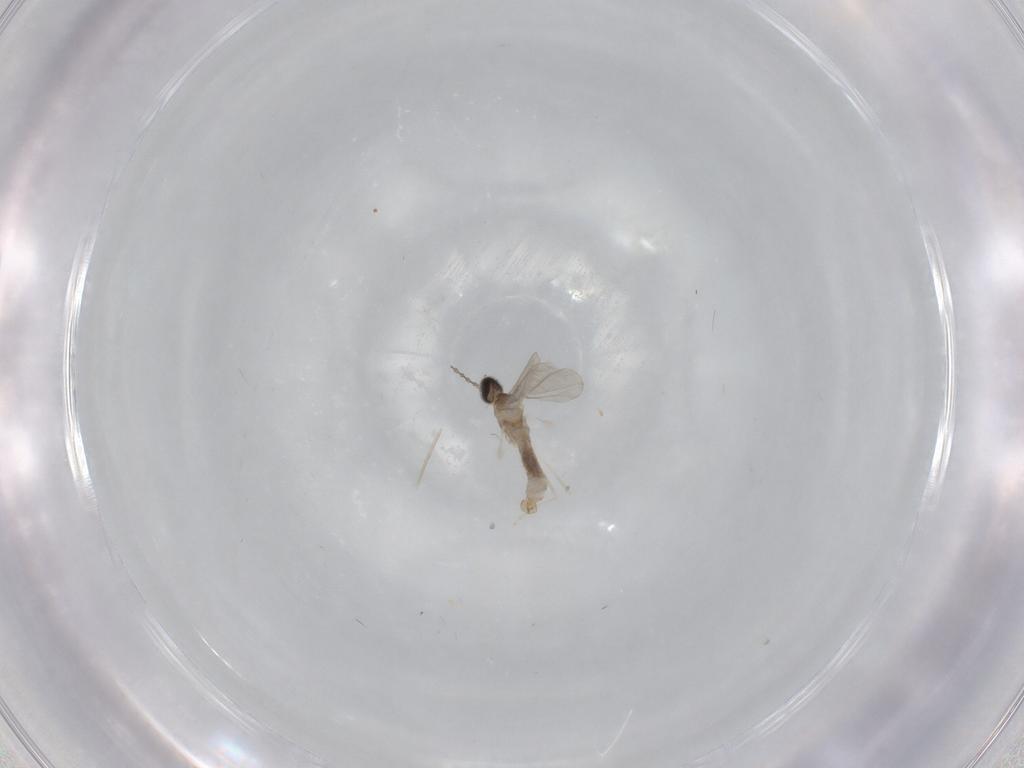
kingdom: Animalia
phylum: Arthropoda
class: Insecta
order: Diptera
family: Cecidomyiidae
